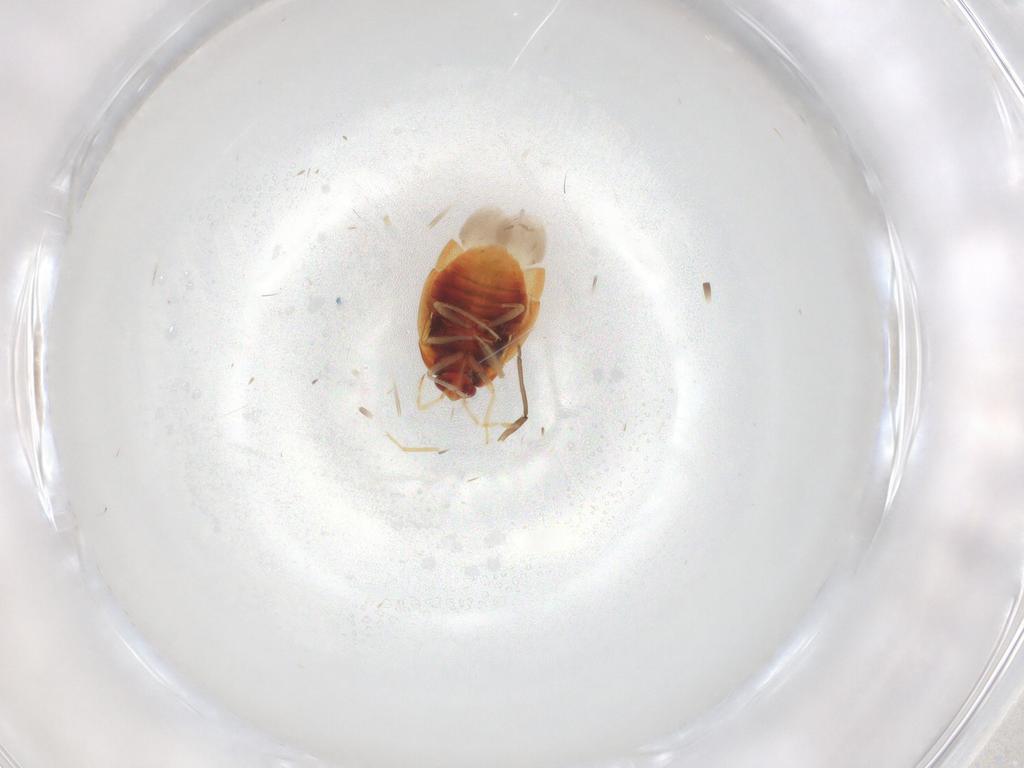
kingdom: Animalia
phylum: Arthropoda
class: Insecta
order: Hemiptera
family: Anthocoridae
